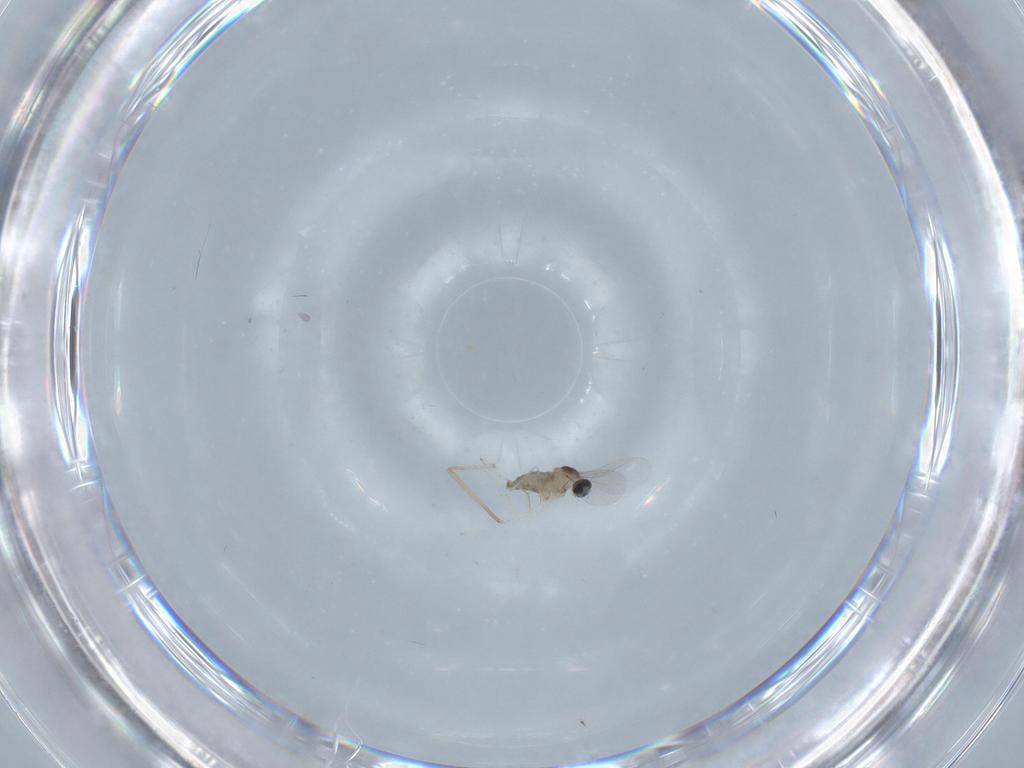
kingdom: Animalia
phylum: Arthropoda
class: Insecta
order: Diptera
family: Cecidomyiidae
